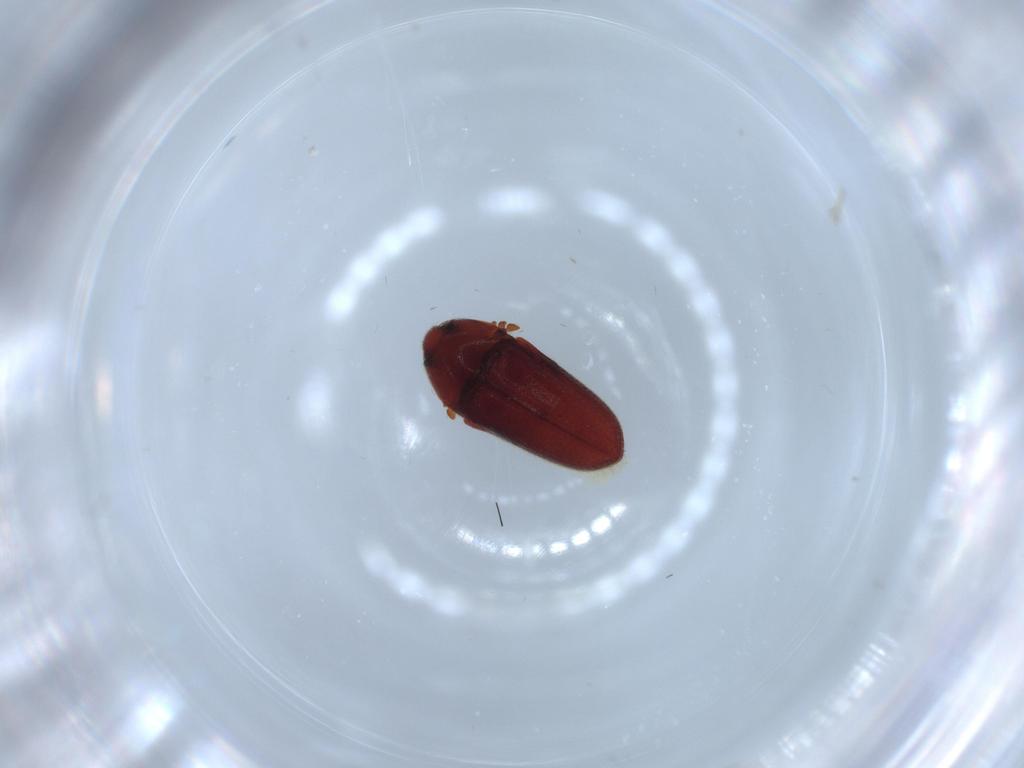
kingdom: Animalia
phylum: Arthropoda
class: Insecta
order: Coleoptera
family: Throscidae
